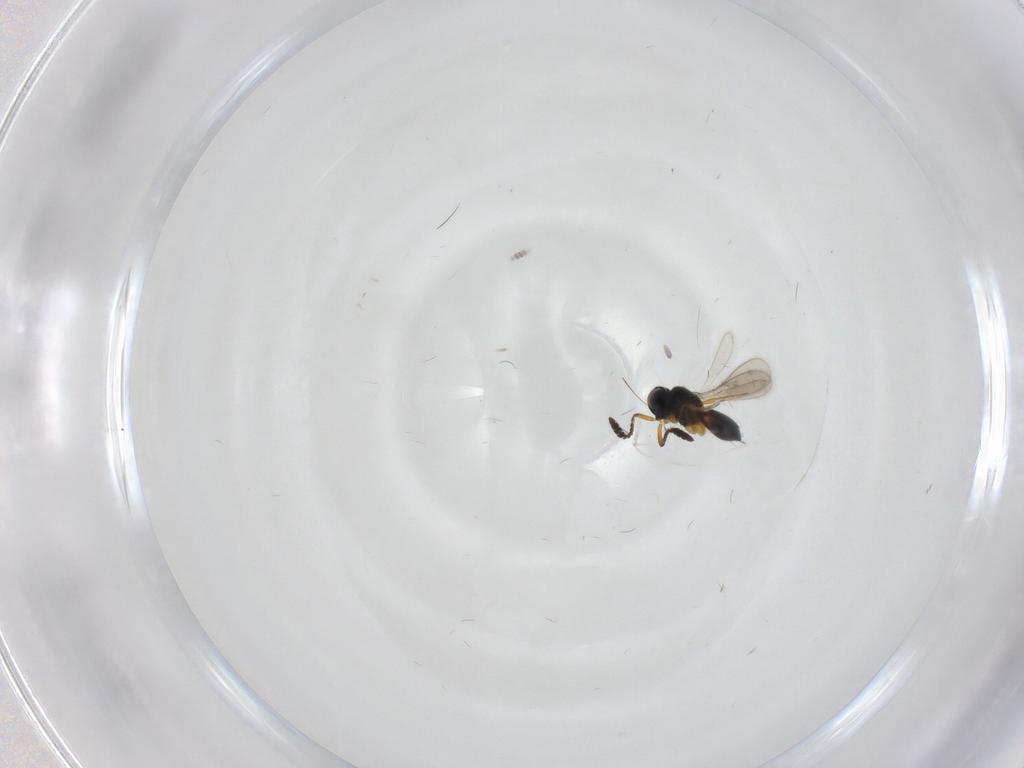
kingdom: Animalia
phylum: Arthropoda
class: Insecta
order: Hymenoptera
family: Scelionidae
